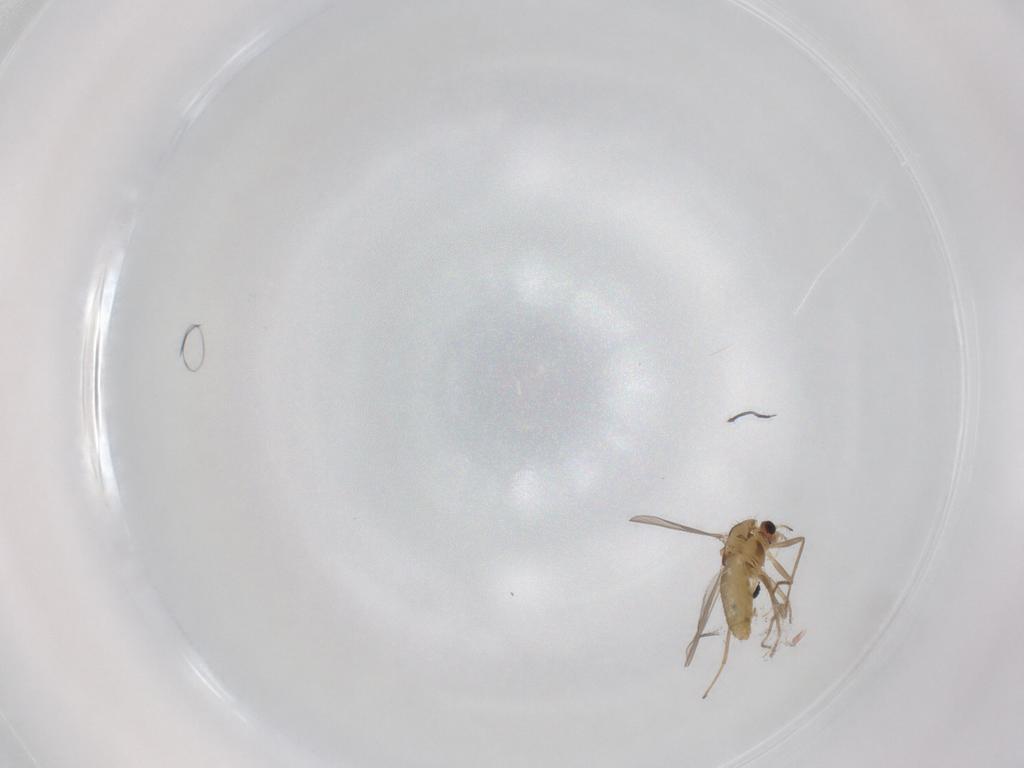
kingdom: Animalia
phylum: Arthropoda
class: Insecta
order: Diptera
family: Chironomidae
